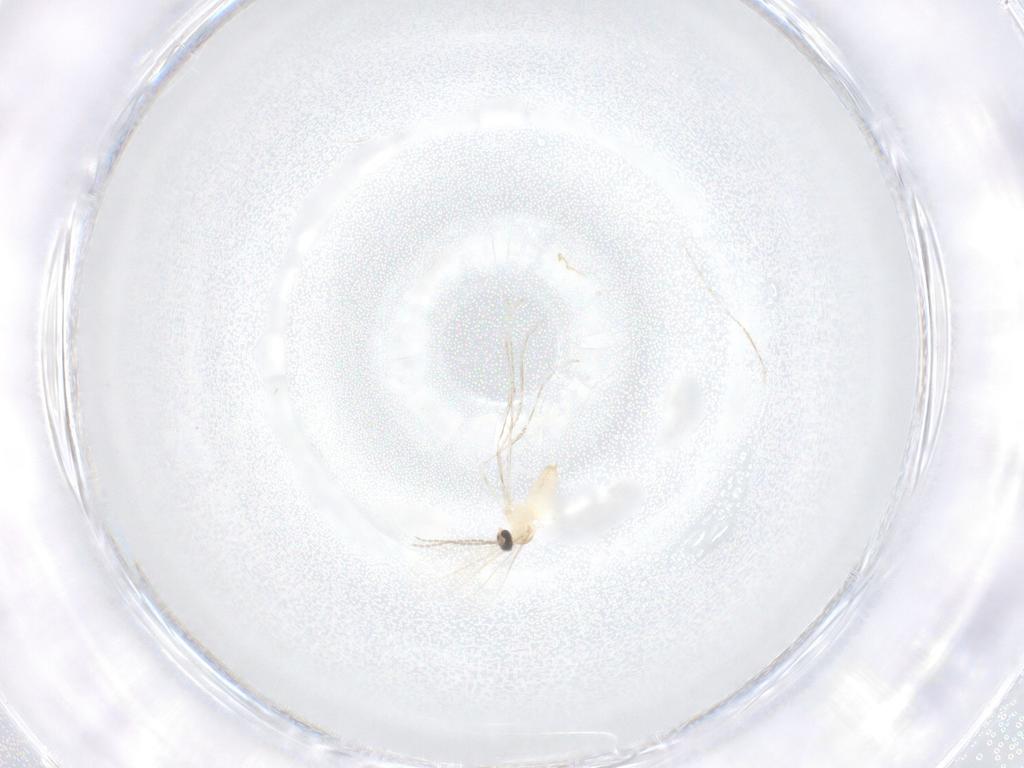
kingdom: Animalia
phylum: Arthropoda
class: Insecta
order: Diptera
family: Cecidomyiidae
